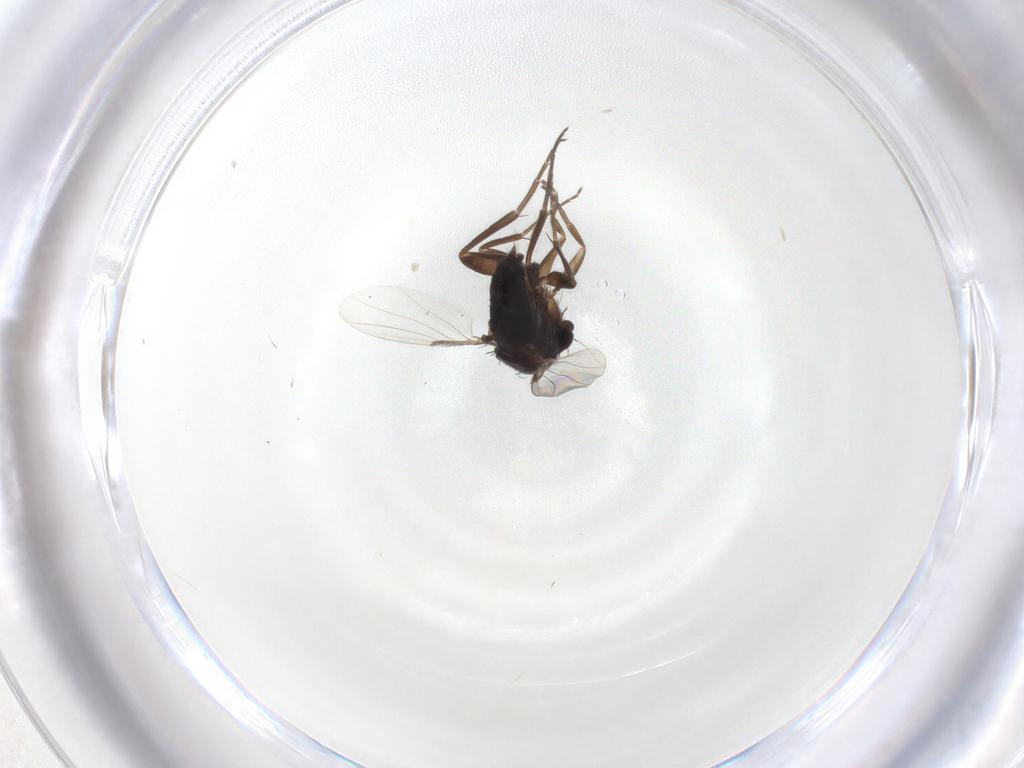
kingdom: Animalia
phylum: Arthropoda
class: Insecta
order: Diptera
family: Phoridae
